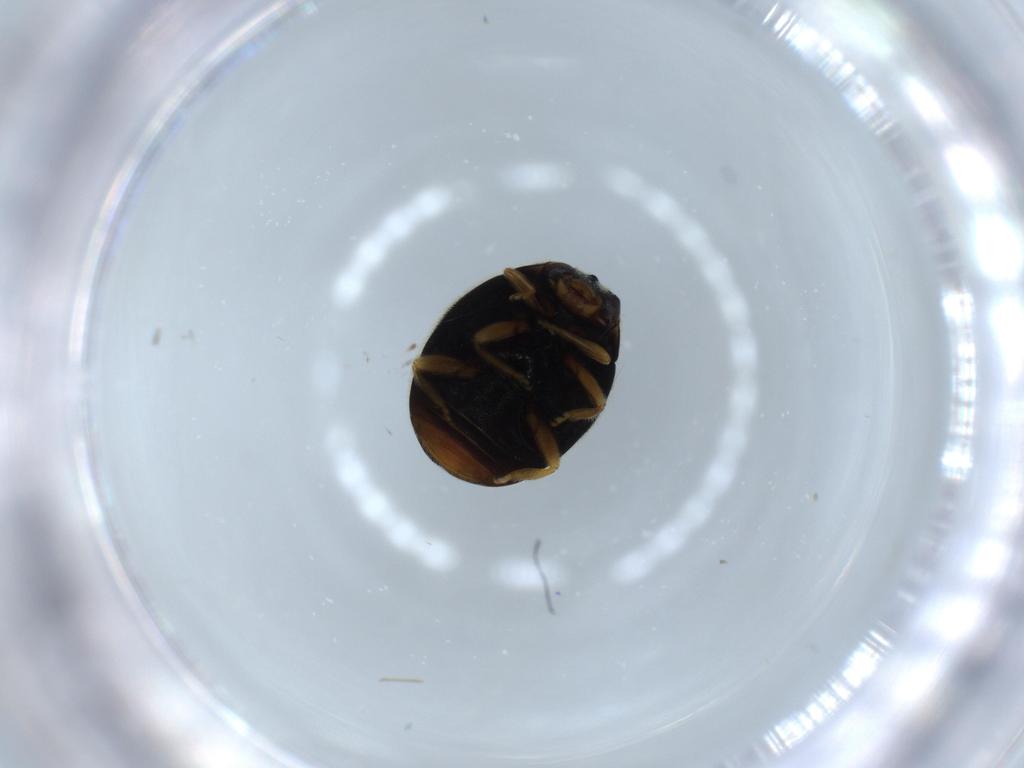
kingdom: Animalia
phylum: Arthropoda
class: Insecta
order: Coleoptera
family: Coccinellidae
